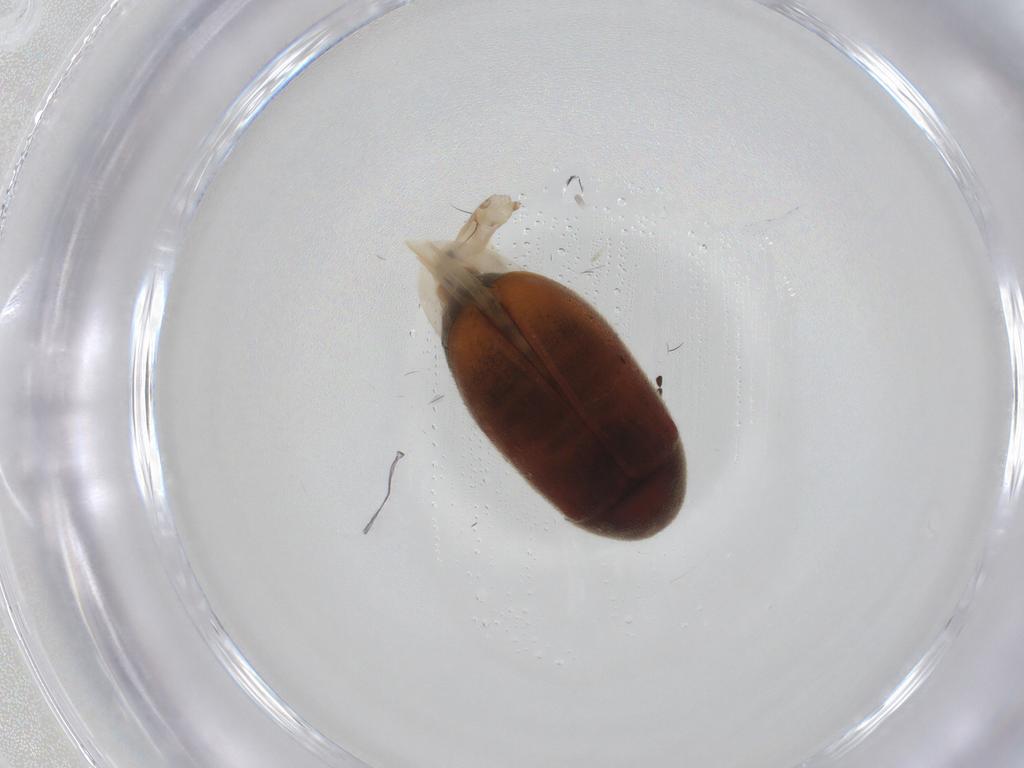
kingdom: Animalia
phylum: Arthropoda
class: Insecta
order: Coleoptera
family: Ptinidae
